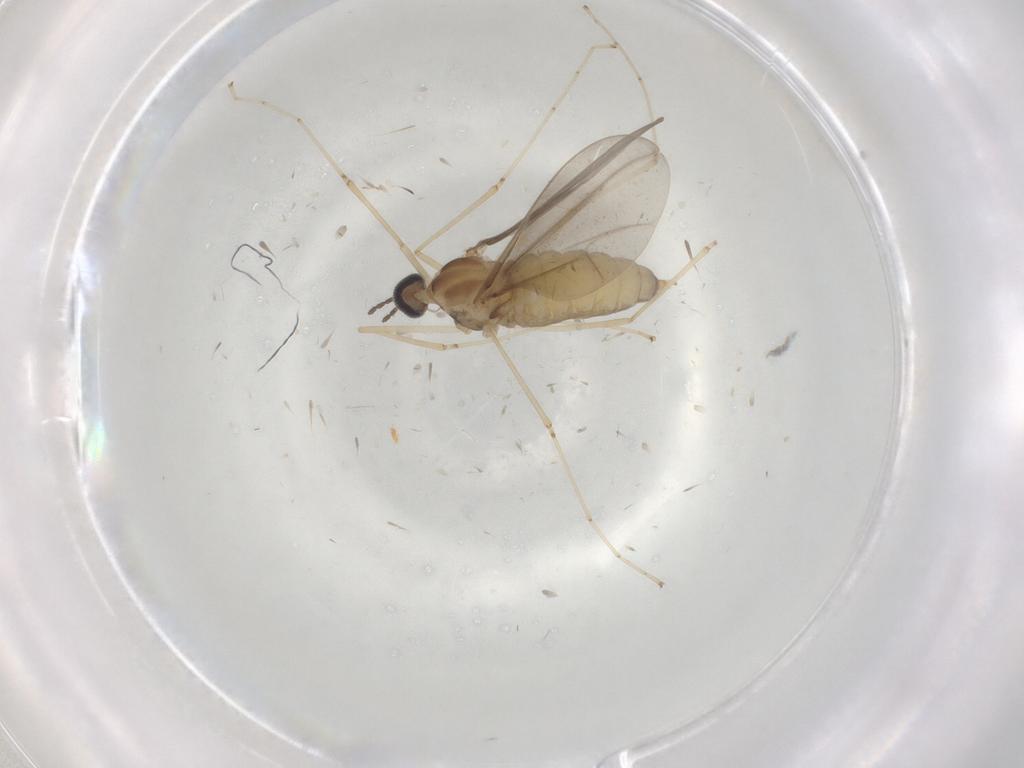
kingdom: Animalia
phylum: Arthropoda
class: Insecta
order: Diptera
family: Cecidomyiidae
